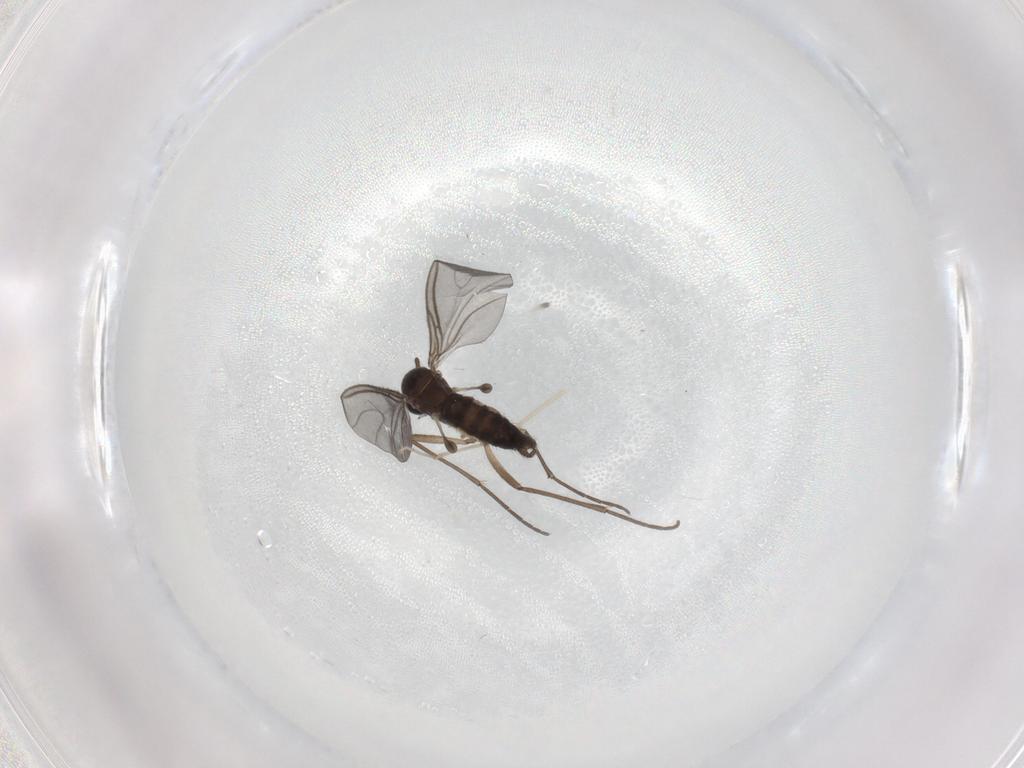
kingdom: Animalia
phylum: Arthropoda
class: Insecta
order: Diptera
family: Sciaridae
